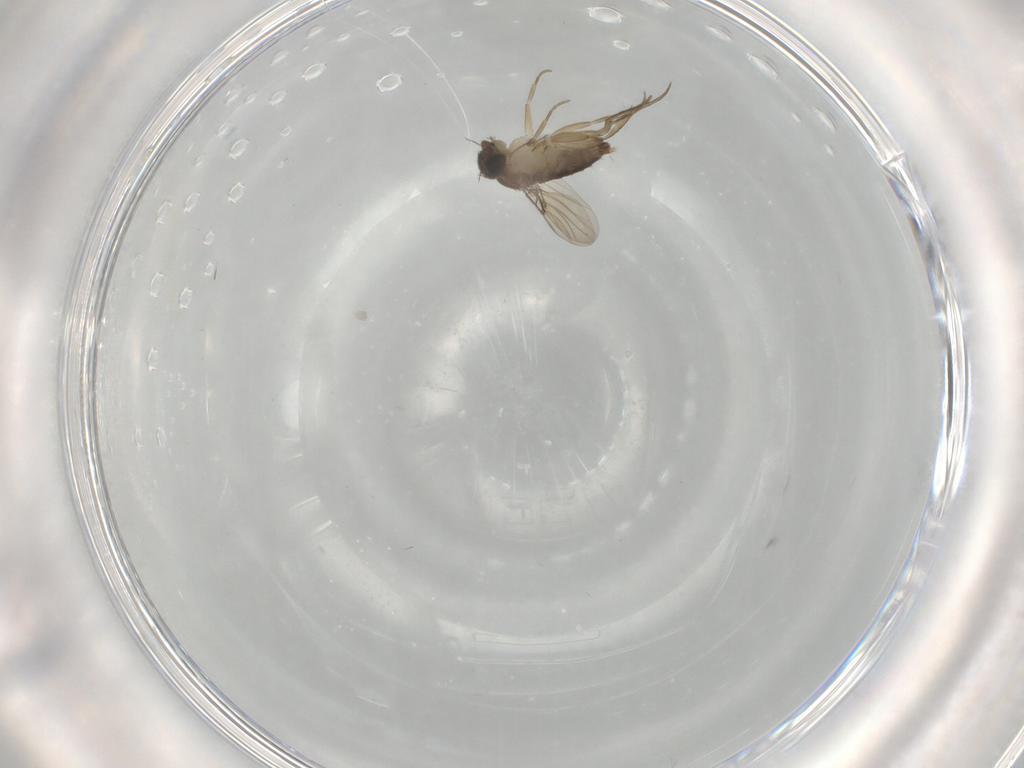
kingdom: Animalia
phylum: Arthropoda
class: Insecta
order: Diptera
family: Phoridae
